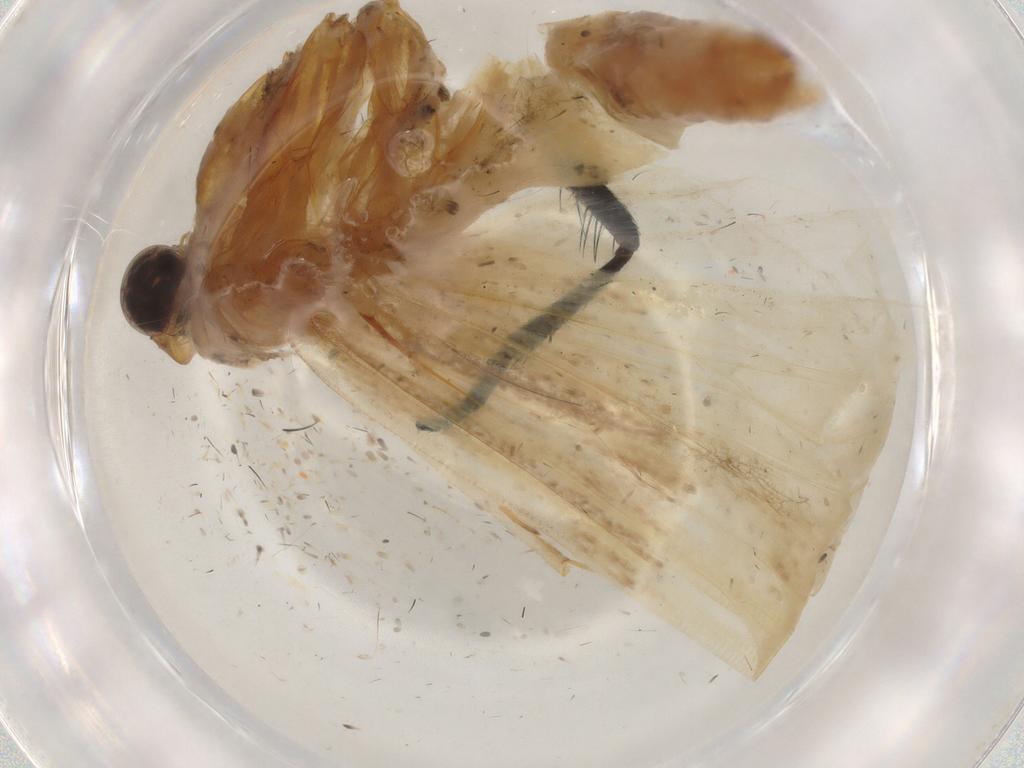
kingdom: Animalia
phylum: Arthropoda
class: Insecta
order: Lepidoptera
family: Pyralidae
